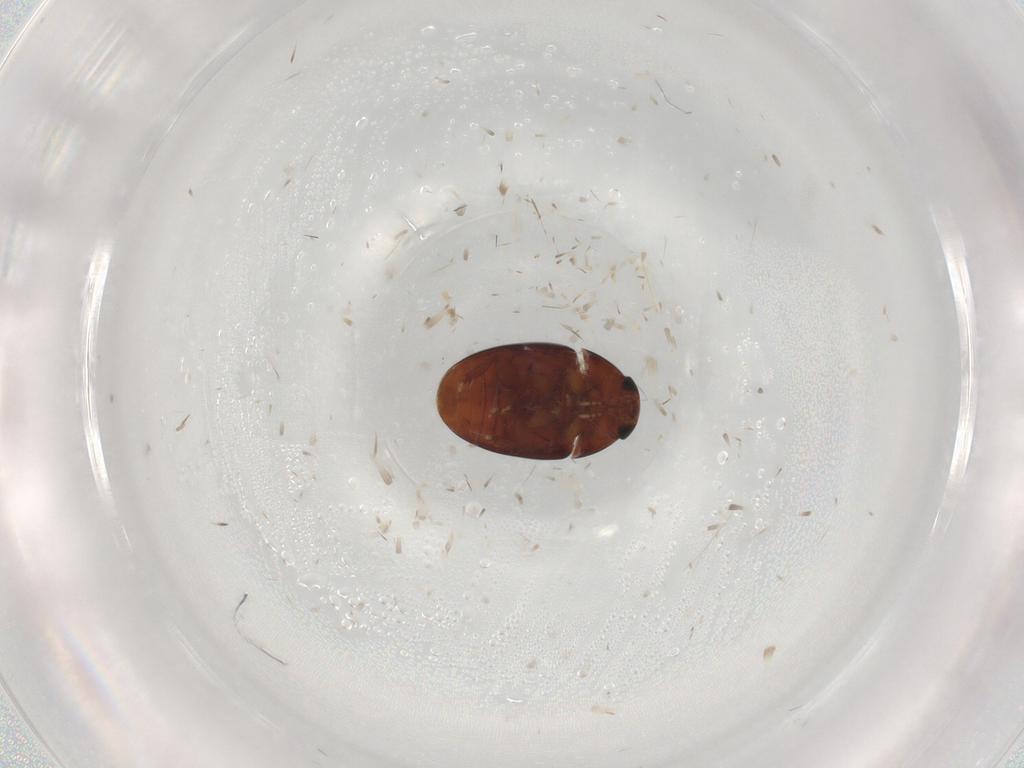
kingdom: Animalia
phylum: Arthropoda
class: Insecta
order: Coleoptera
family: Phalacridae
